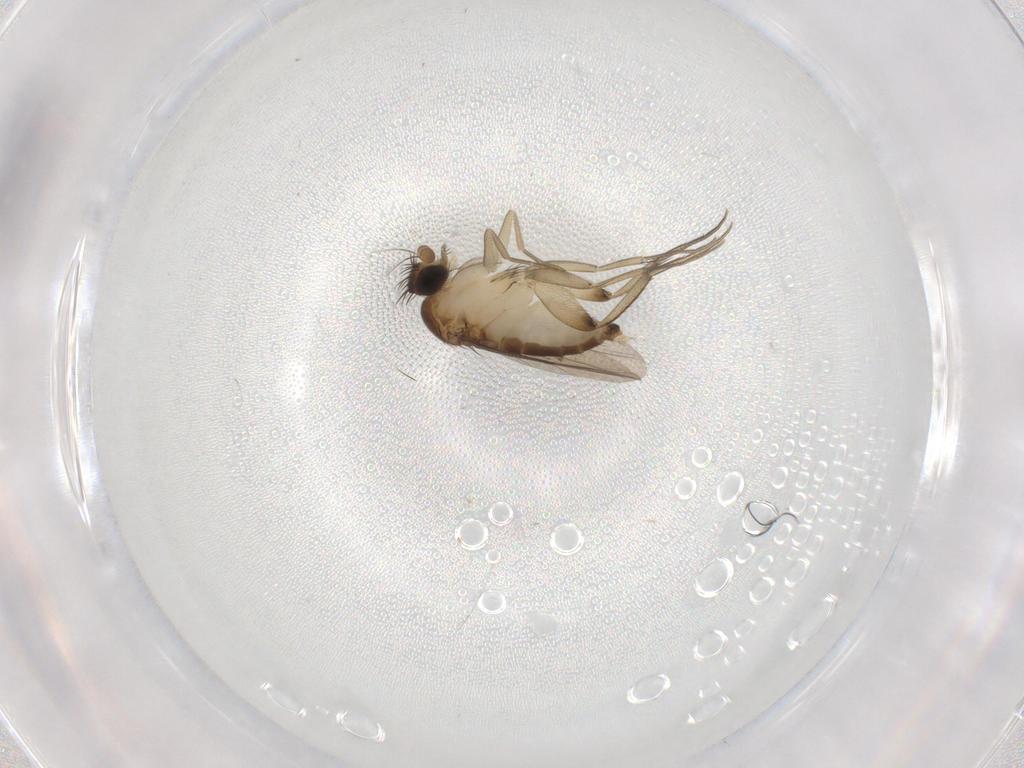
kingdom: Animalia
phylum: Arthropoda
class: Insecta
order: Diptera
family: Phoridae
